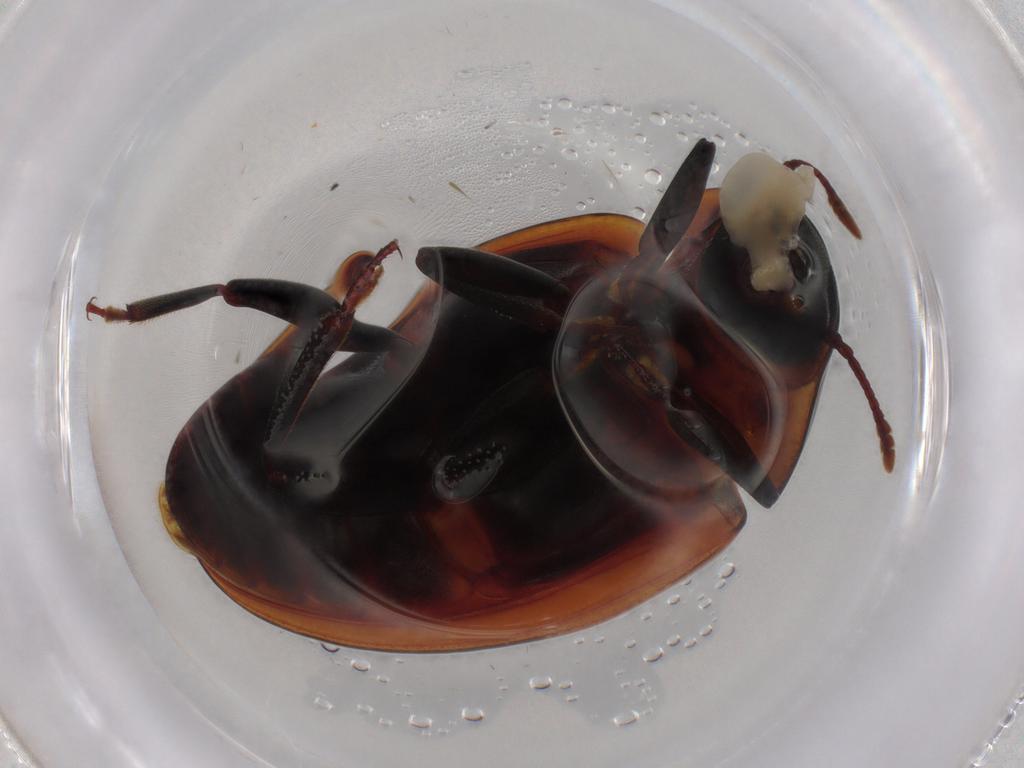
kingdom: Animalia
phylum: Arthropoda
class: Insecta
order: Coleoptera
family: Zopheridae
